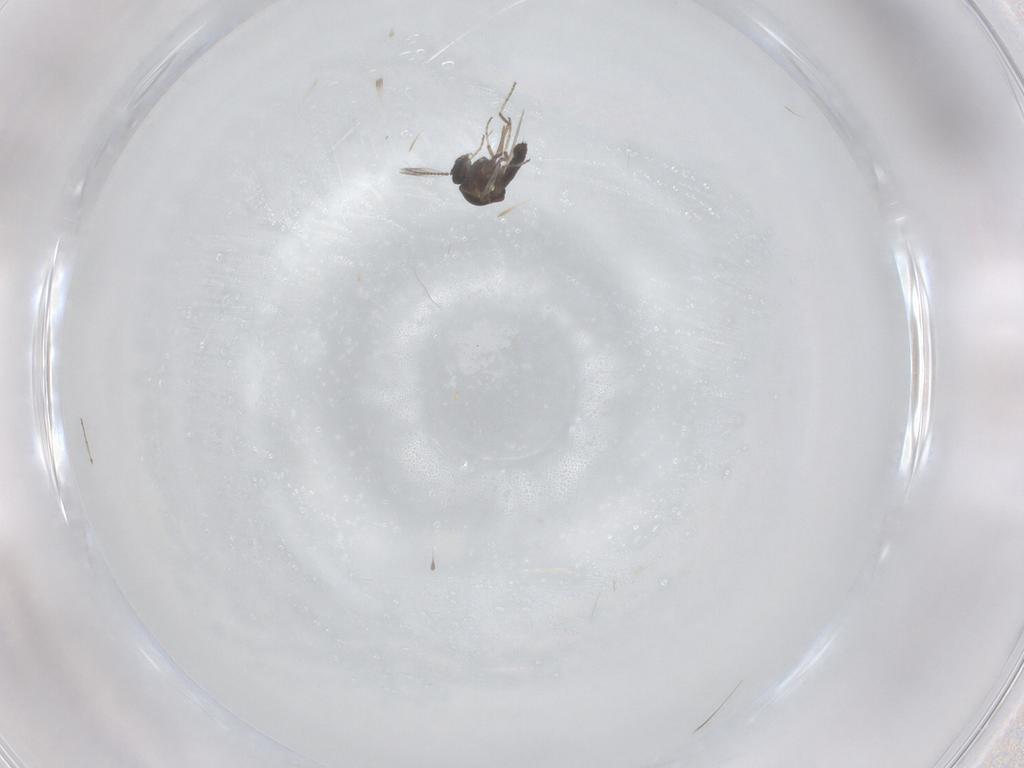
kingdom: Animalia
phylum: Arthropoda
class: Insecta
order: Diptera
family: Ceratopogonidae
